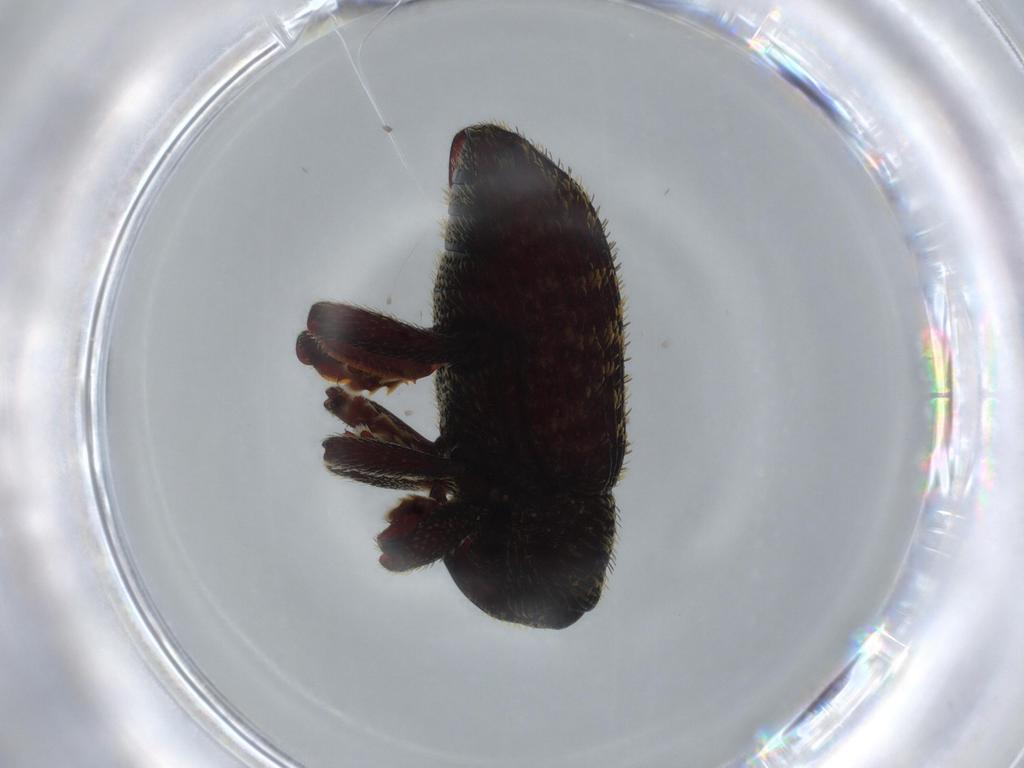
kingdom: Animalia
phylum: Arthropoda
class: Insecta
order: Coleoptera
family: Curculionidae
